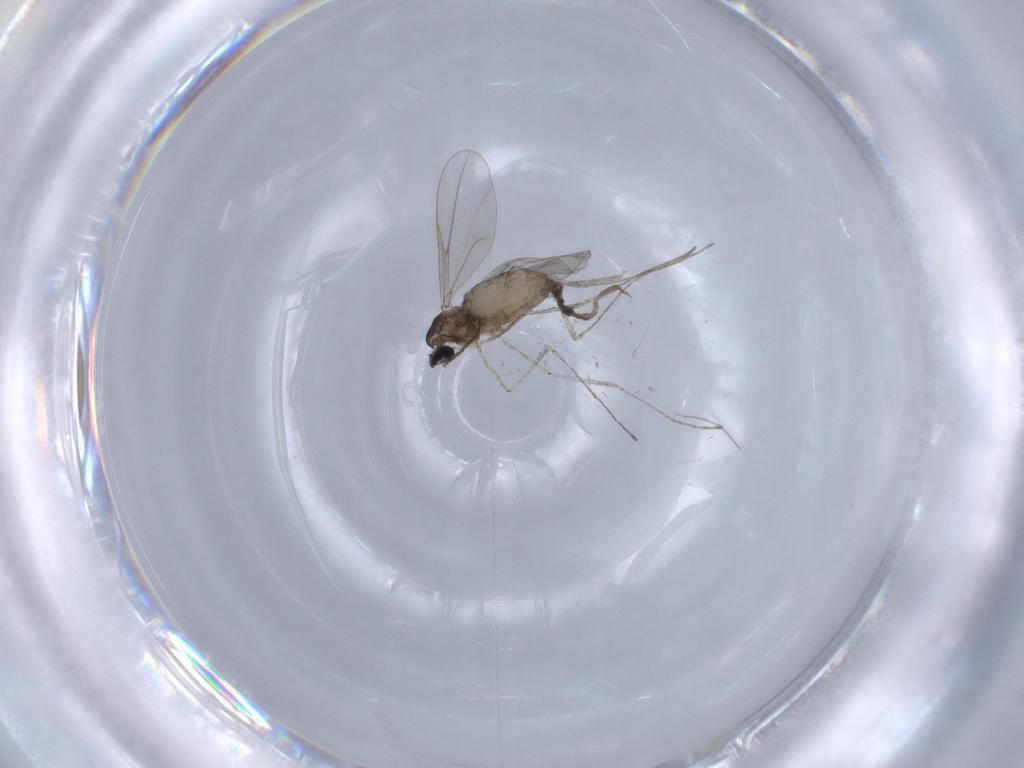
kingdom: Animalia
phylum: Arthropoda
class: Insecta
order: Diptera
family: Cecidomyiidae
